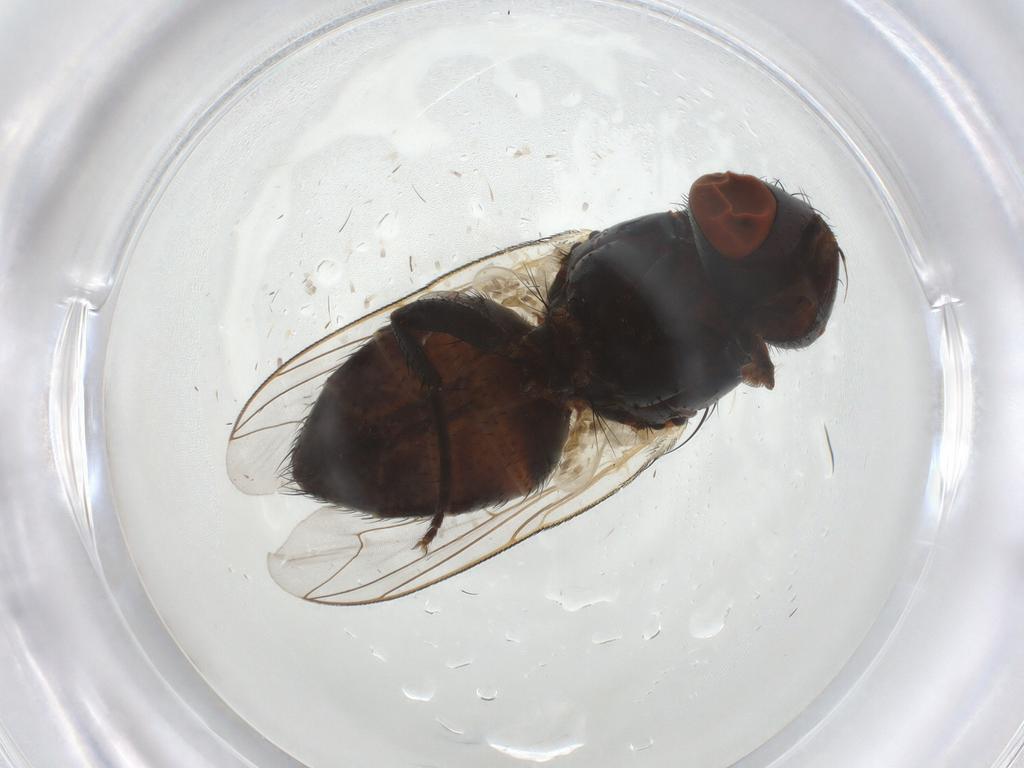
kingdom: Animalia
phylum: Arthropoda
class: Insecta
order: Diptera
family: Sarcophagidae
